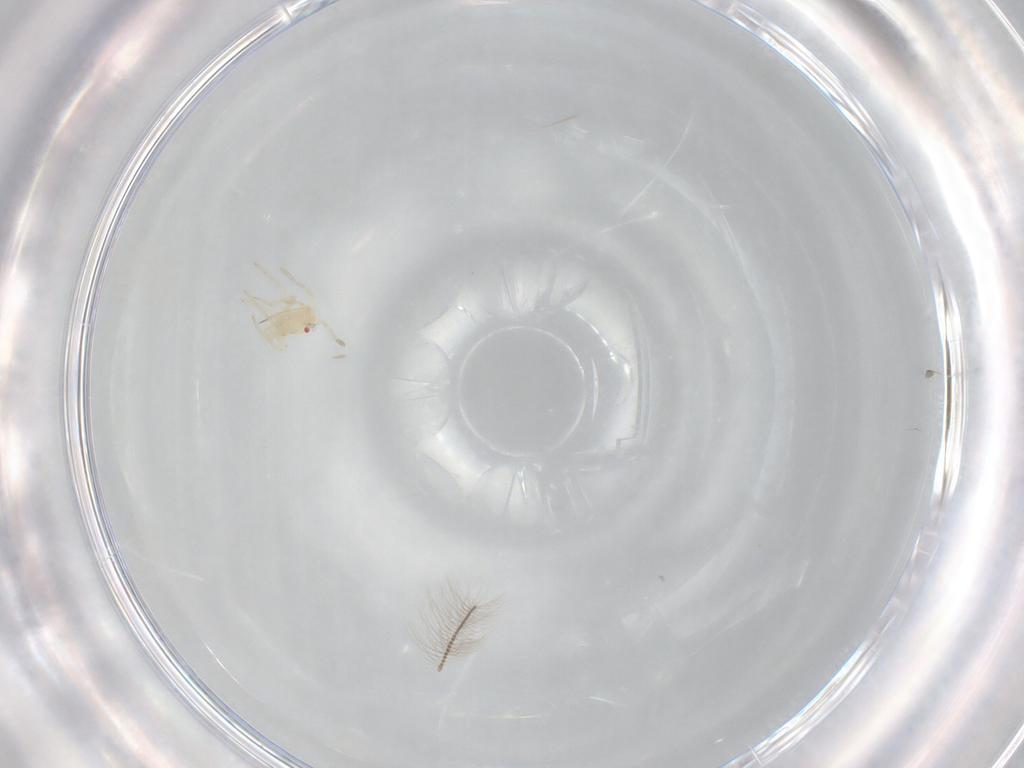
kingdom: Animalia
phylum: Arthropoda
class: Insecta
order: Hemiptera
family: Miridae
